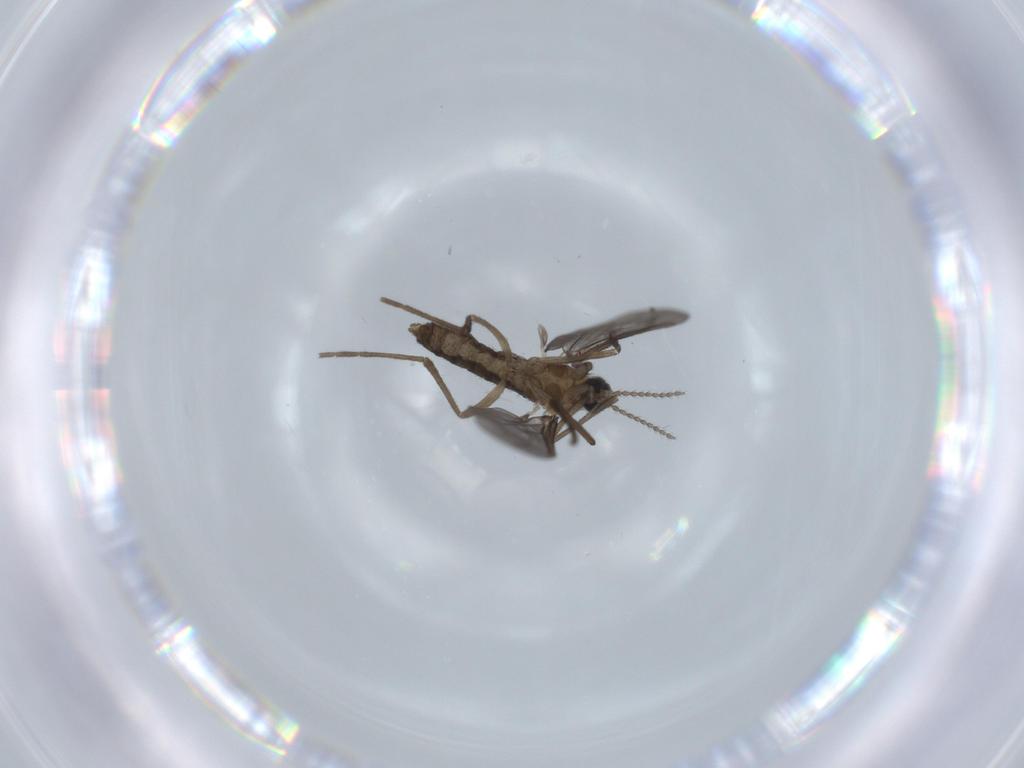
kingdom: Animalia
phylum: Arthropoda
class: Insecta
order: Diptera
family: Cecidomyiidae
